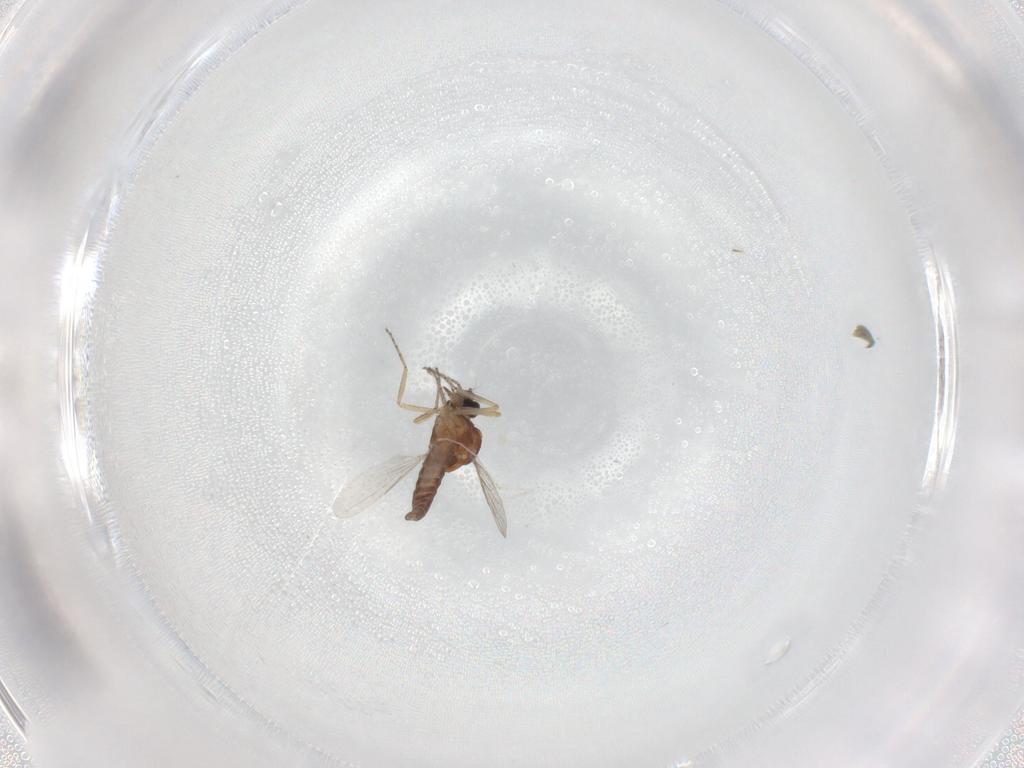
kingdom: Animalia
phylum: Arthropoda
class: Insecta
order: Diptera
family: Ceratopogonidae
